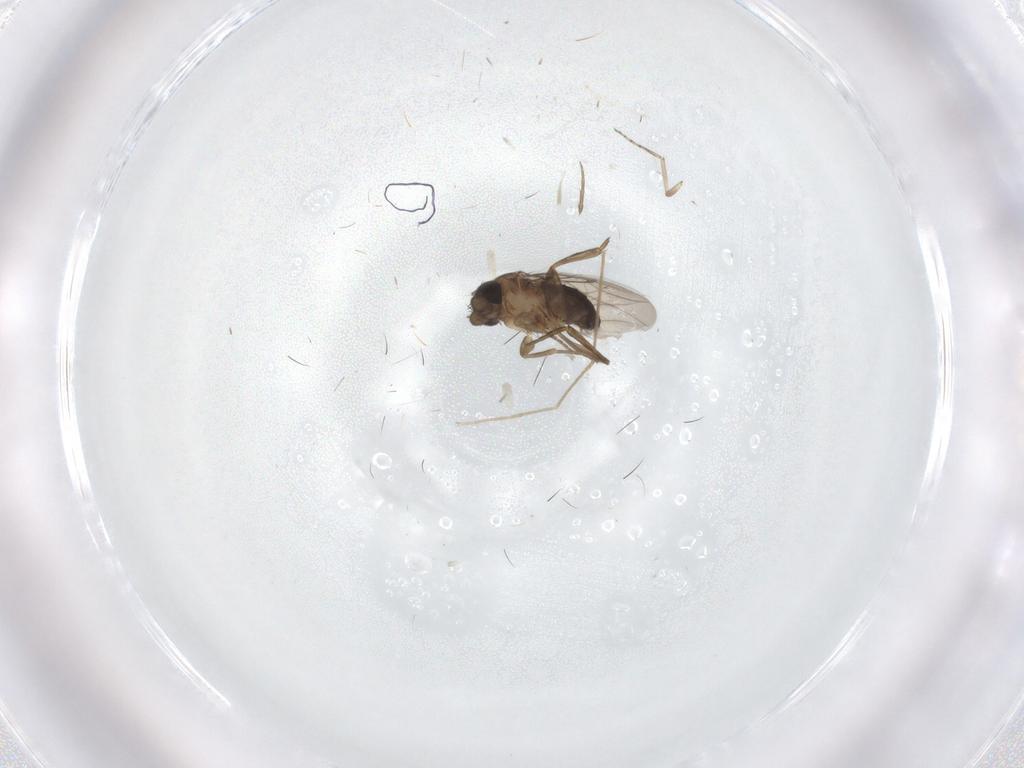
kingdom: Animalia
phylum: Arthropoda
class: Insecta
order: Diptera
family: Phoridae
